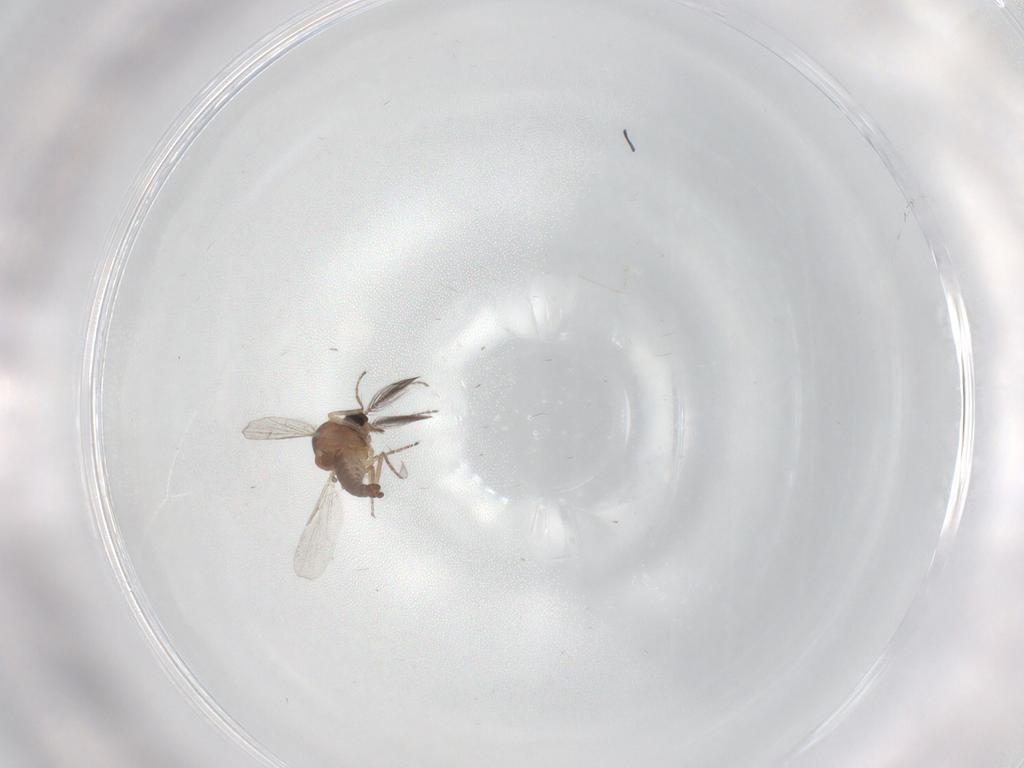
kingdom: Animalia
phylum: Arthropoda
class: Insecta
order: Diptera
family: Ceratopogonidae
